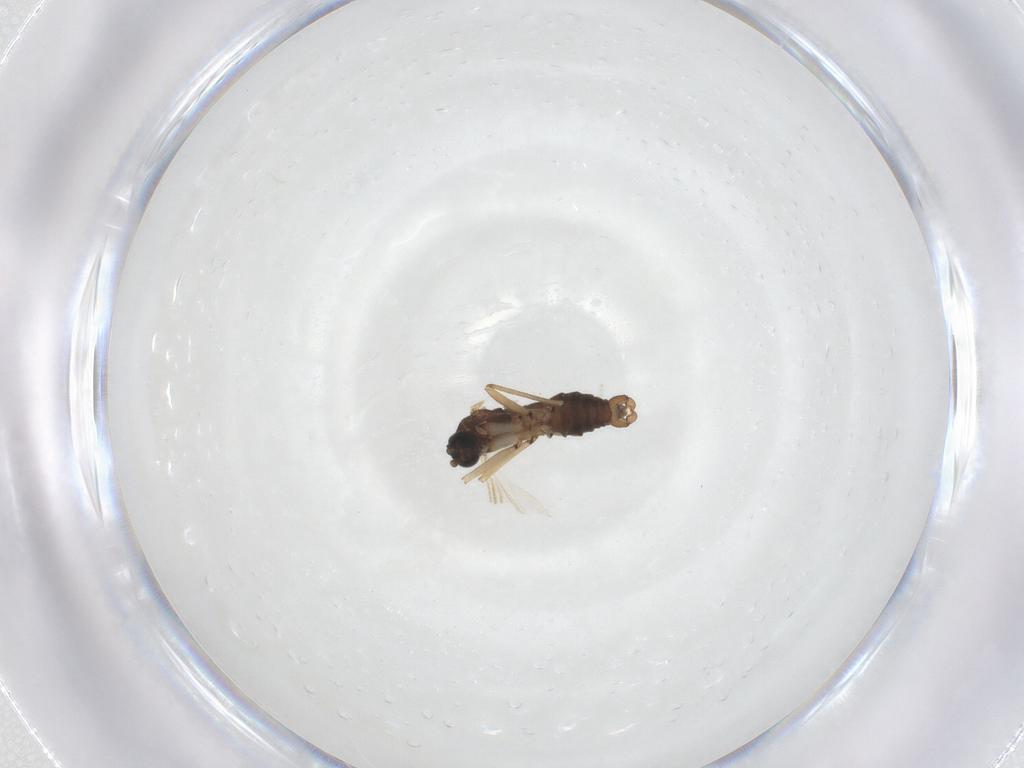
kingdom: Animalia
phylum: Arthropoda
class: Insecta
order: Diptera
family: Sciaridae
